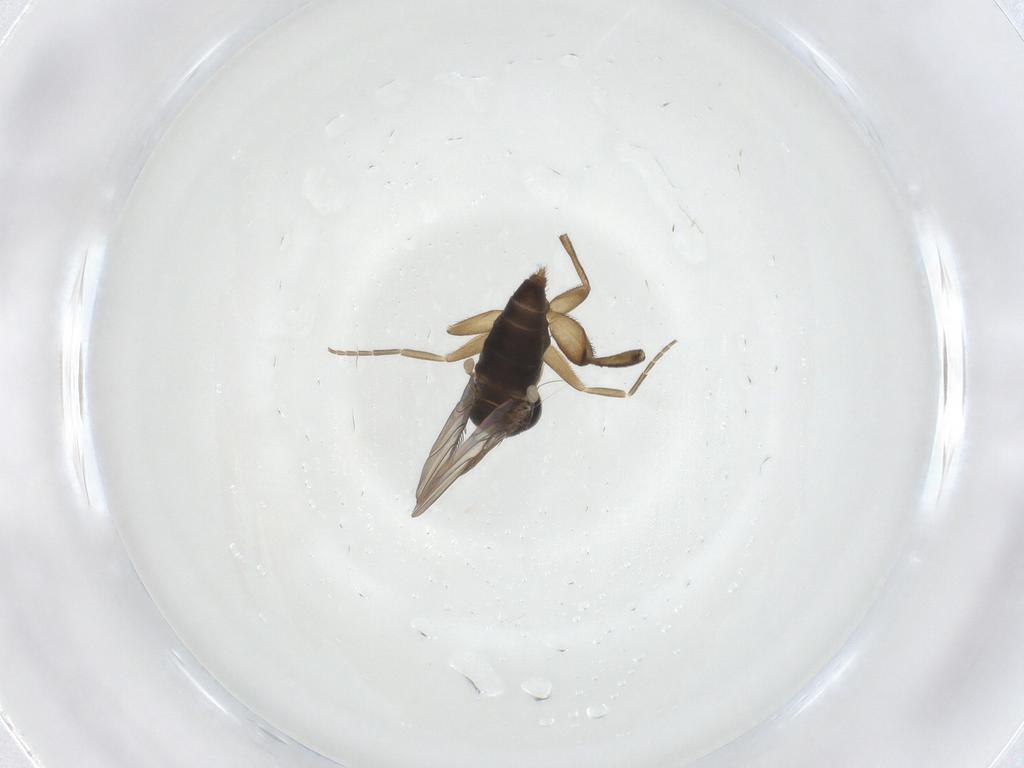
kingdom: Animalia
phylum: Arthropoda
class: Insecta
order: Diptera
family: Phoridae
